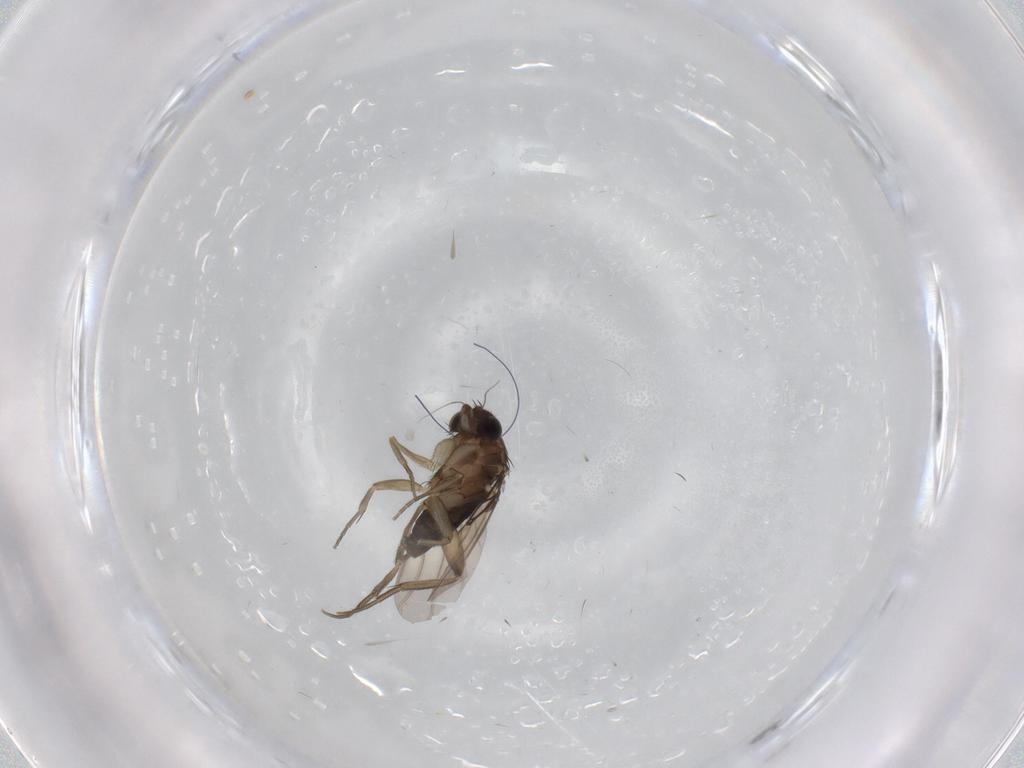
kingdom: Animalia
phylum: Arthropoda
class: Insecta
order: Diptera
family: Phoridae
